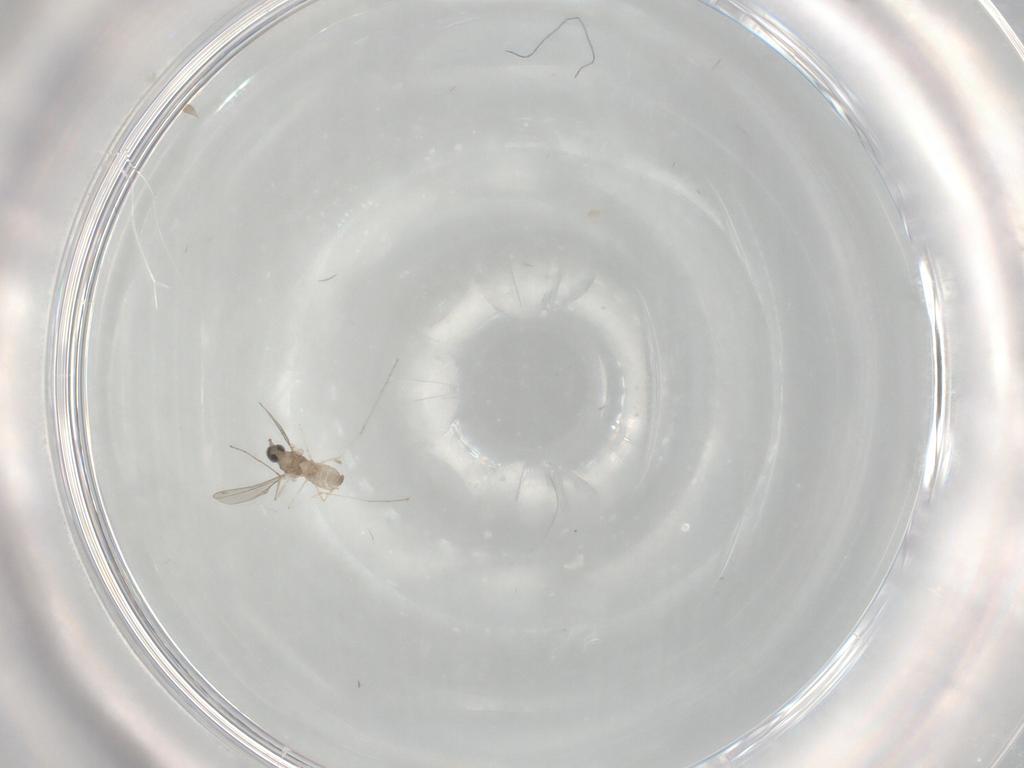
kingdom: Animalia
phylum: Arthropoda
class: Insecta
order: Diptera
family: Cecidomyiidae
